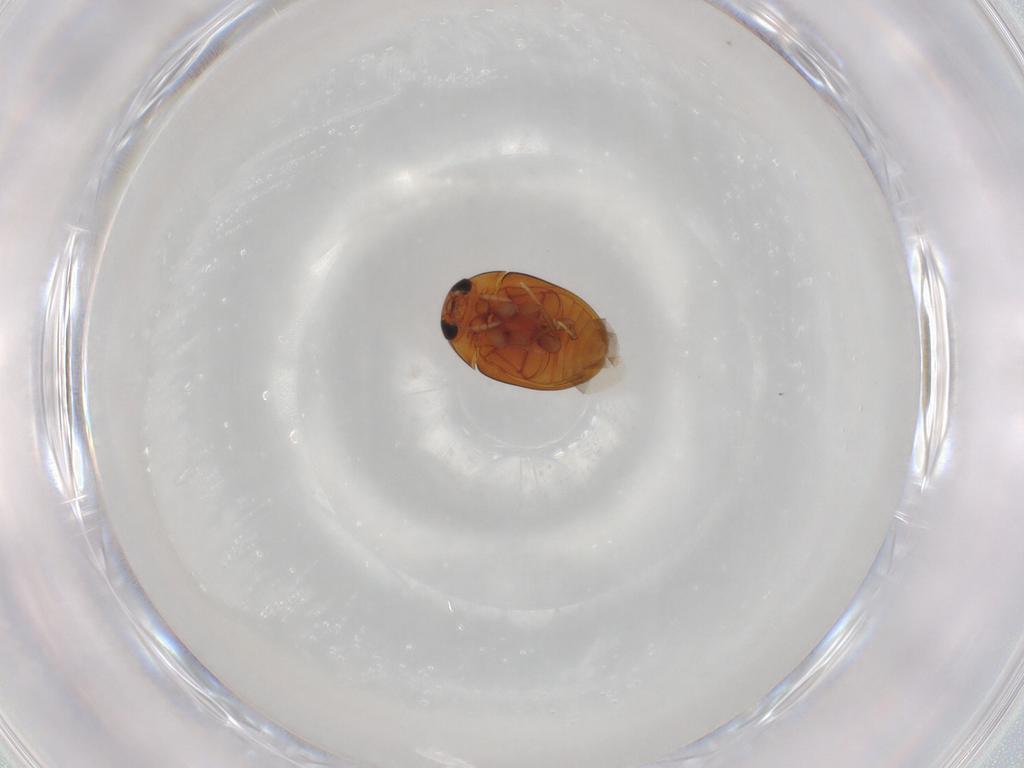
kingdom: Animalia
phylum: Arthropoda
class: Insecta
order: Coleoptera
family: Phalacridae
